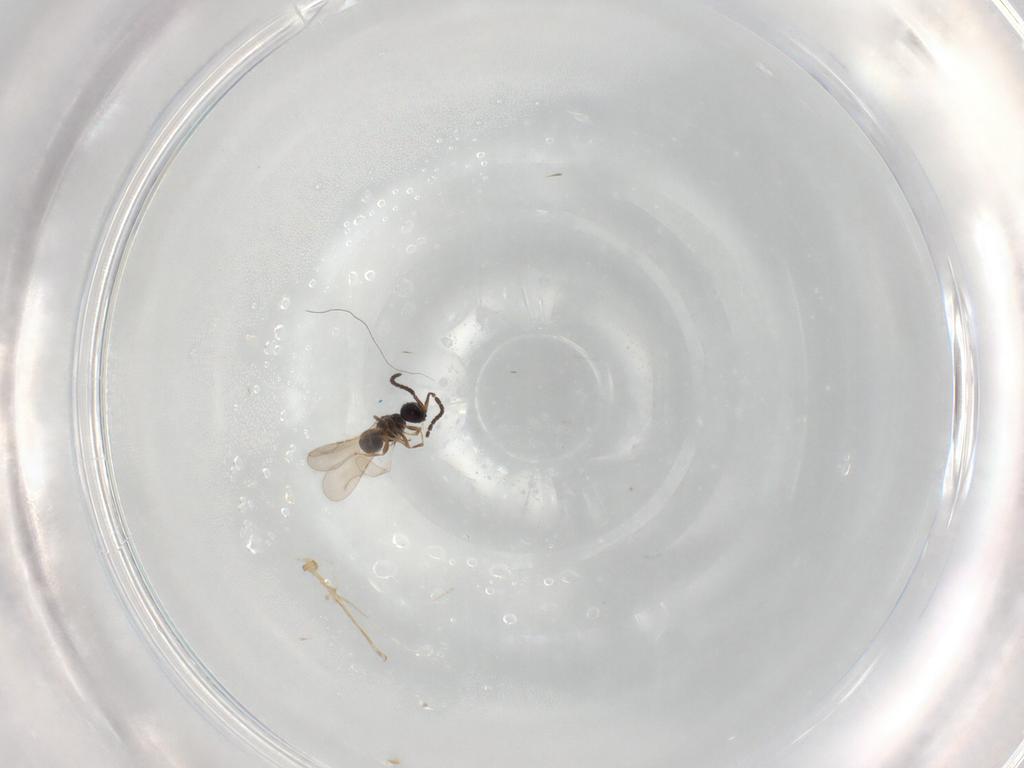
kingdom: Animalia
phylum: Arthropoda
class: Insecta
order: Hymenoptera
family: Ceraphronidae
